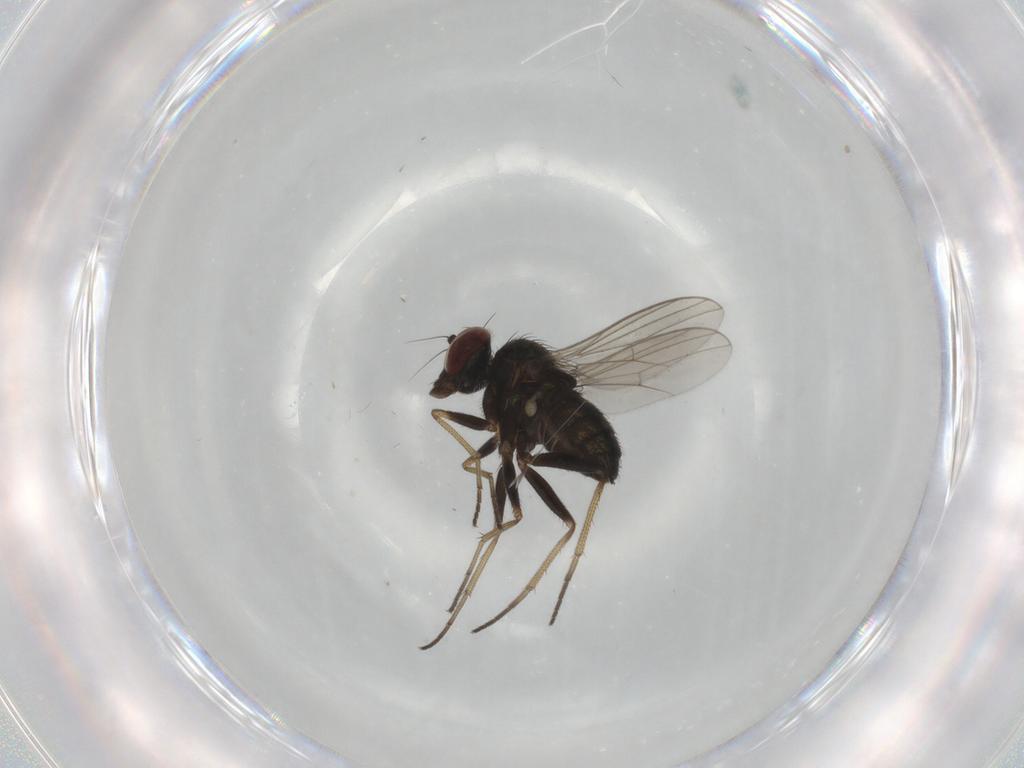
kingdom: Animalia
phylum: Arthropoda
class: Insecta
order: Diptera
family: Dolichopodidae
